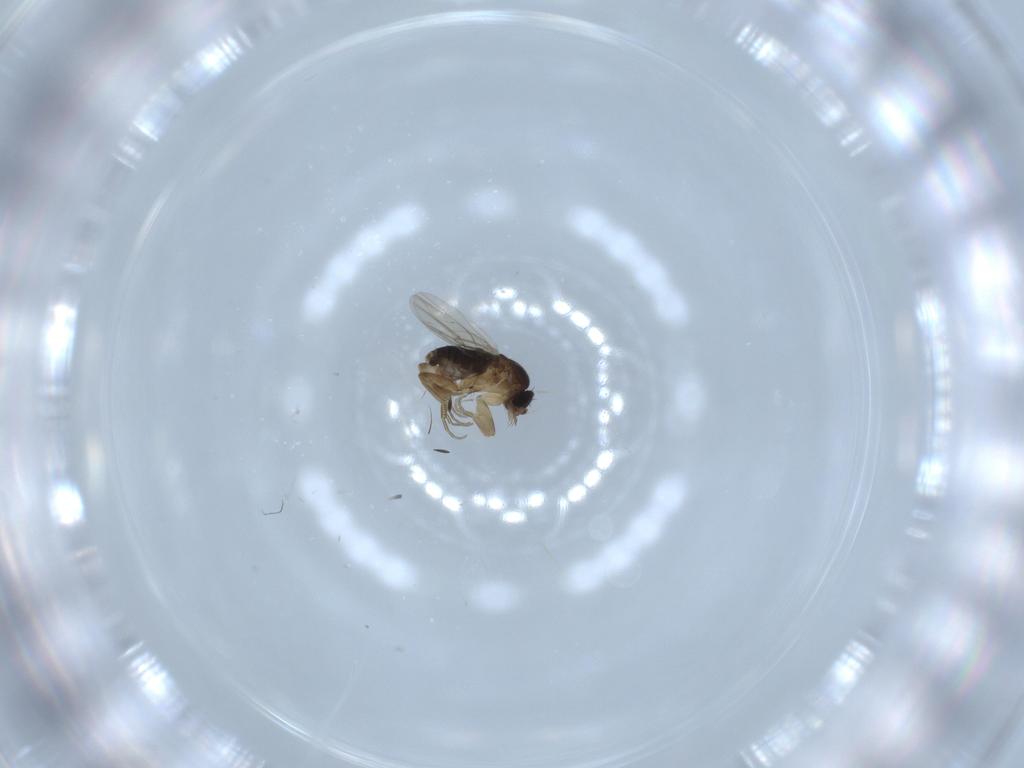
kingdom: Animalia
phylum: Arthropoda
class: Insecta
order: Diptera
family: Phoridae
